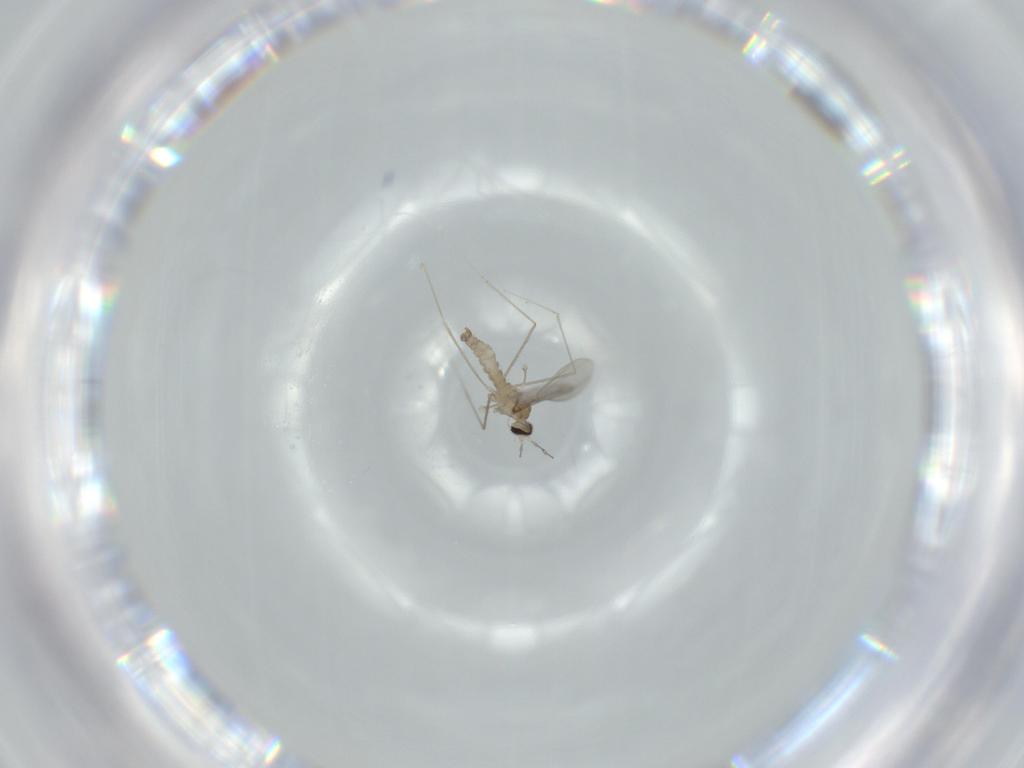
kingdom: Animalia
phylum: Arthropoda
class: Insecta
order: Diptera
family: Cecidomyiidae
